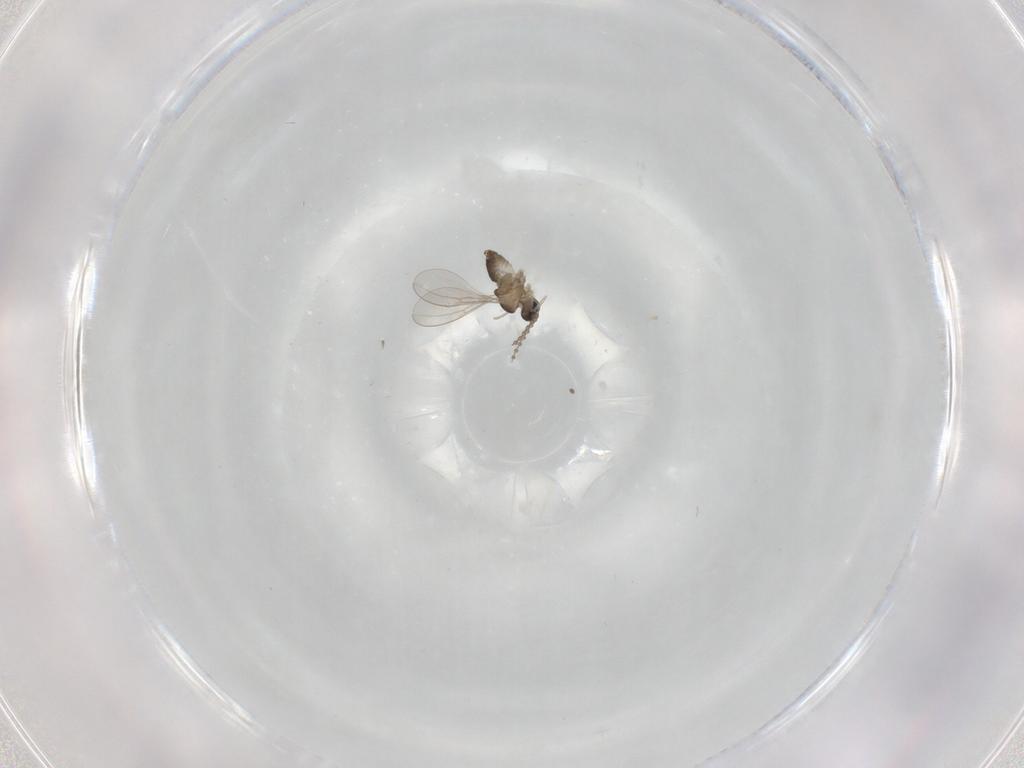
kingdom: Animalia
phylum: Arthropoda
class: Insecta
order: Diptera
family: Cecidomyiidae
